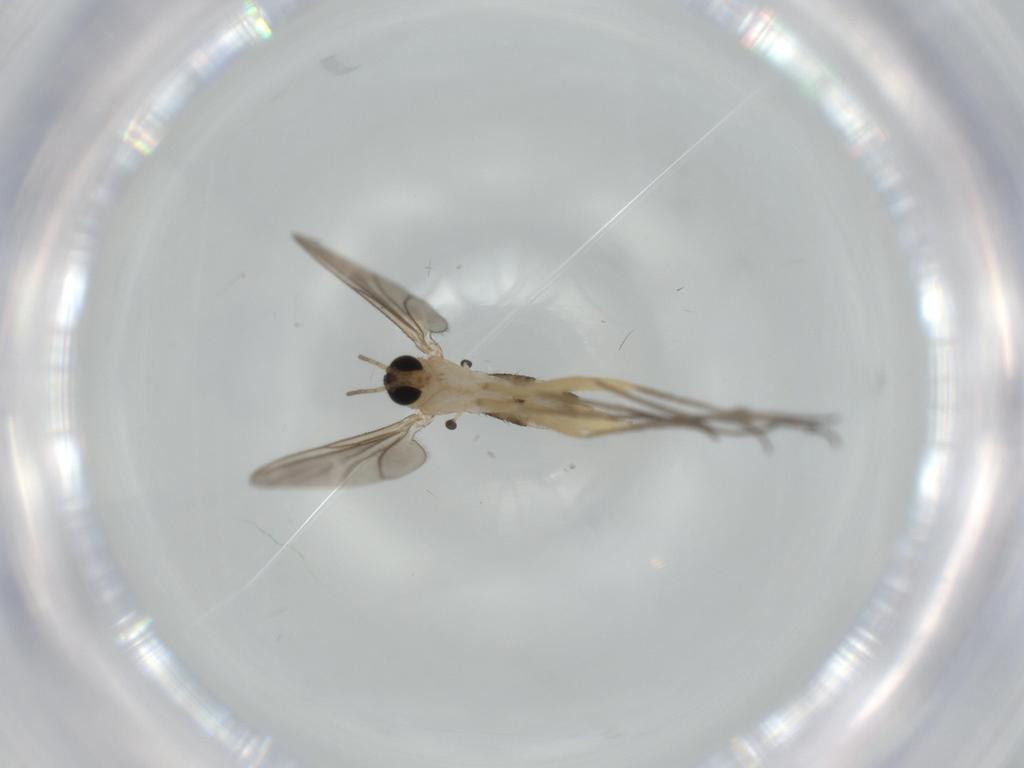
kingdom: Animalia
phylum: Arthropoda
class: Insecta
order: Diptera
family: Sciaridae
